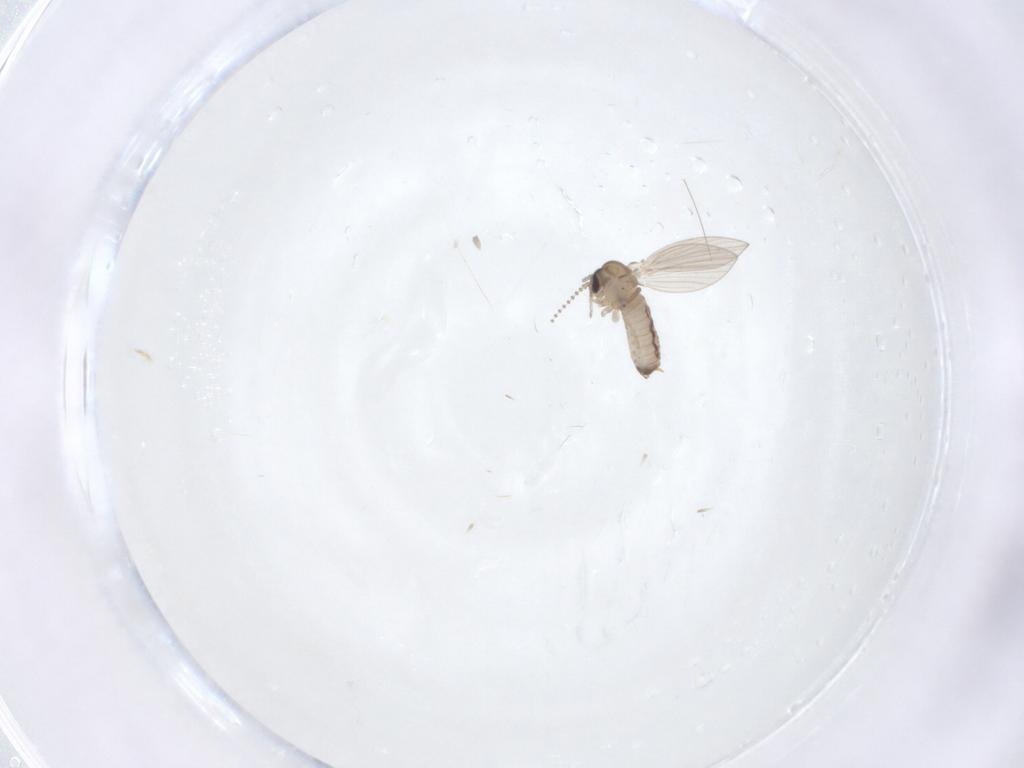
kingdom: Animalia
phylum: Arthropoda
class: Insecta
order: Diptera
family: Psychodidae
